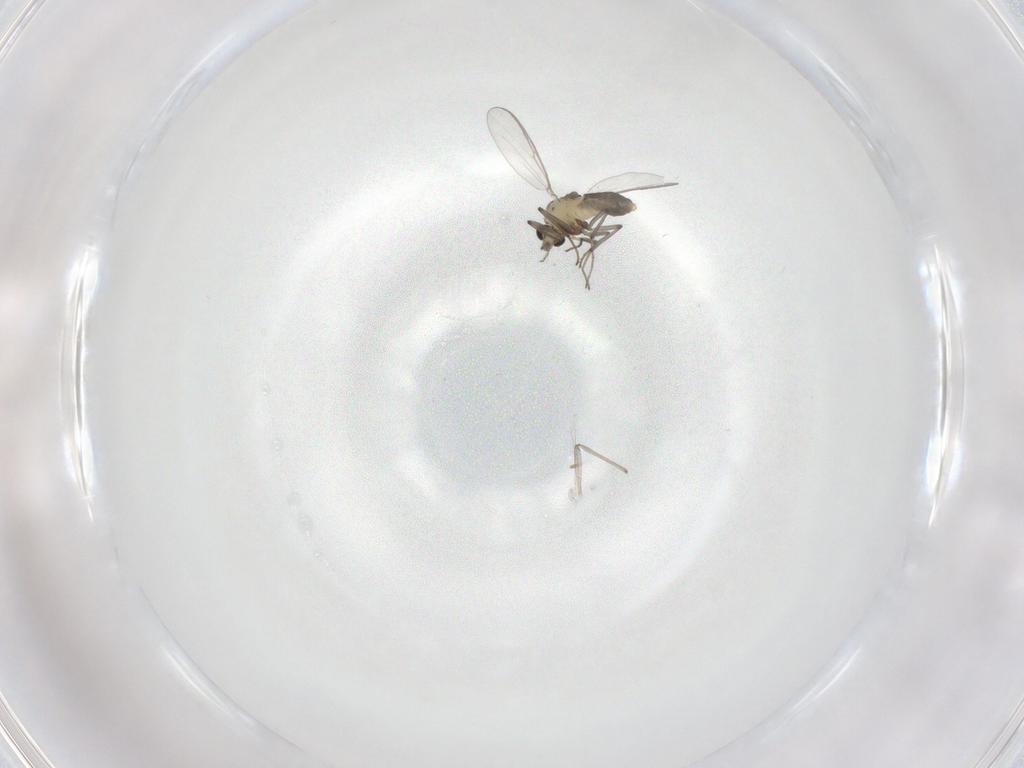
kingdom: Animalia
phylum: Arthropoda
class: Insecta
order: Diptera
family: Chironomidae
